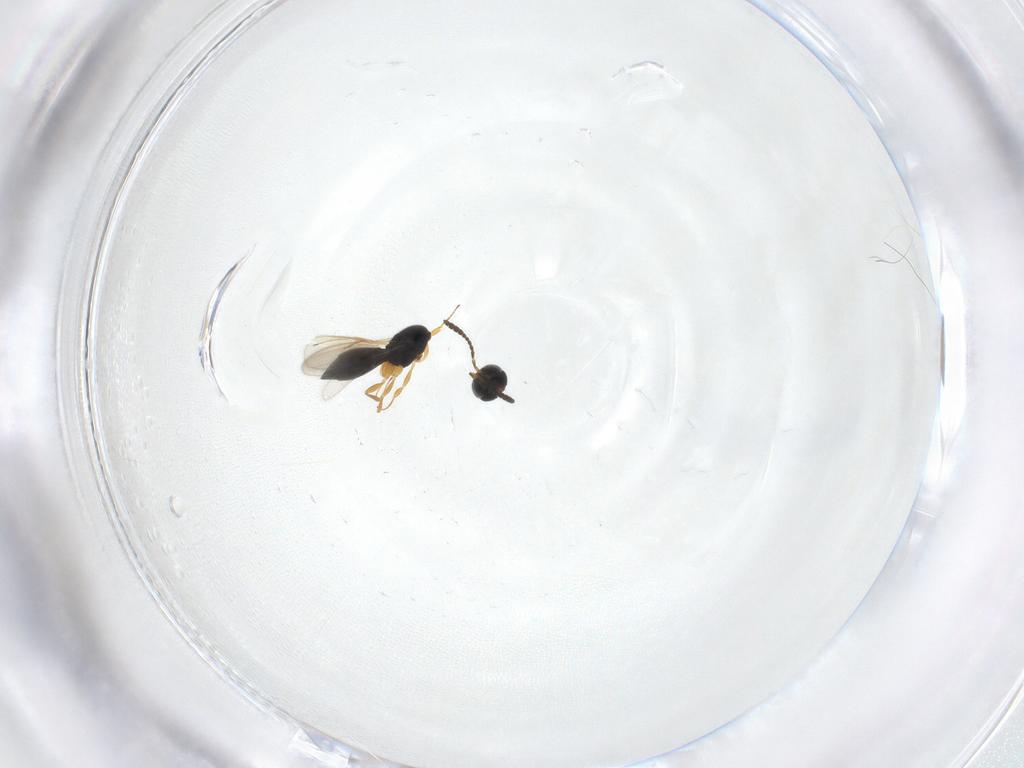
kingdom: Animalia
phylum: Arthropoda
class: Insecta
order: Hymenoptera
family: Scelionidae
